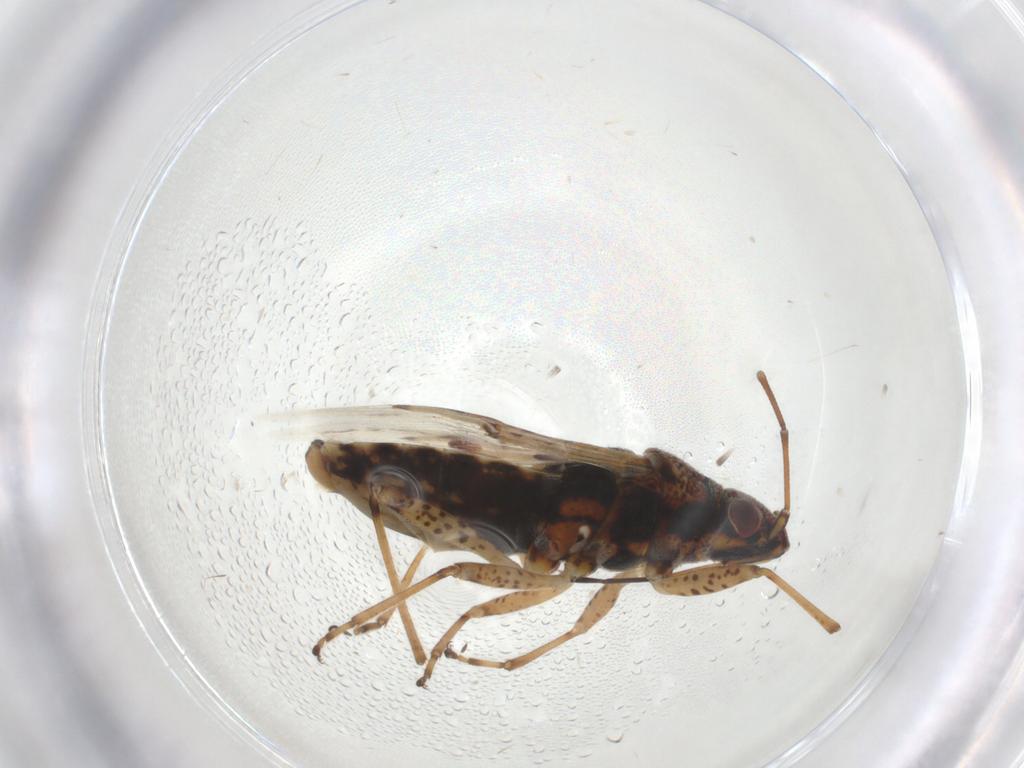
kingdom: Animalia
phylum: Arthropoda
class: Insecta
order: Hemiptera
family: Lygaeidae
